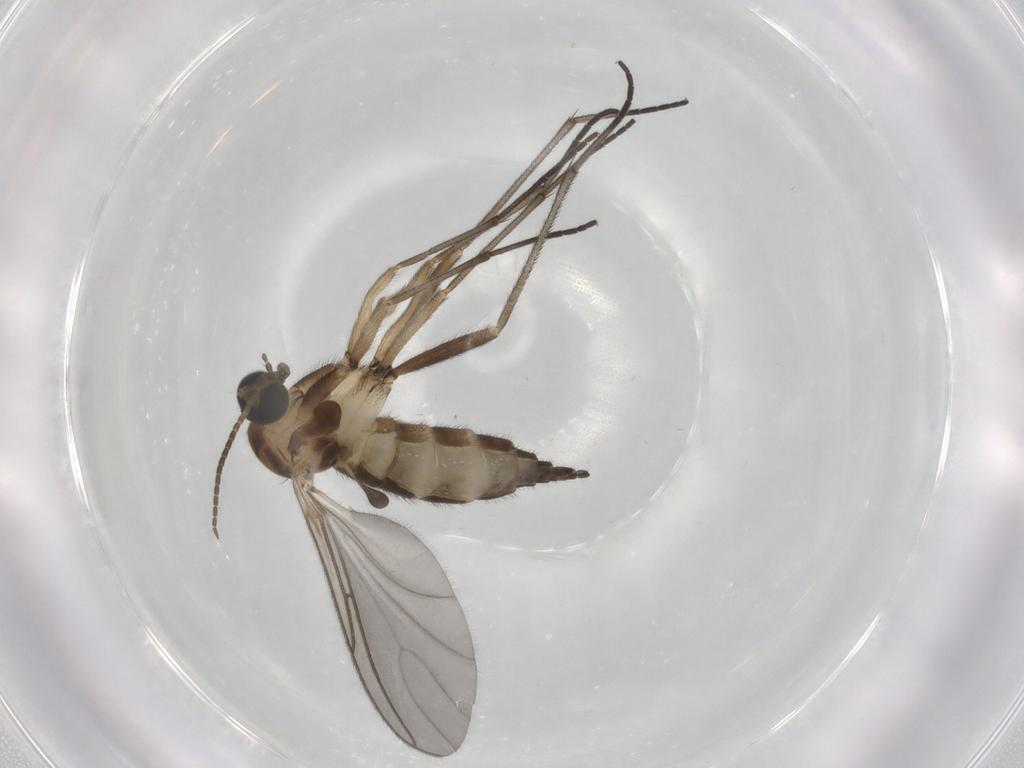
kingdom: Animalia
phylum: Arthropoda
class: Insecta
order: Diptera
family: Sciaridae
